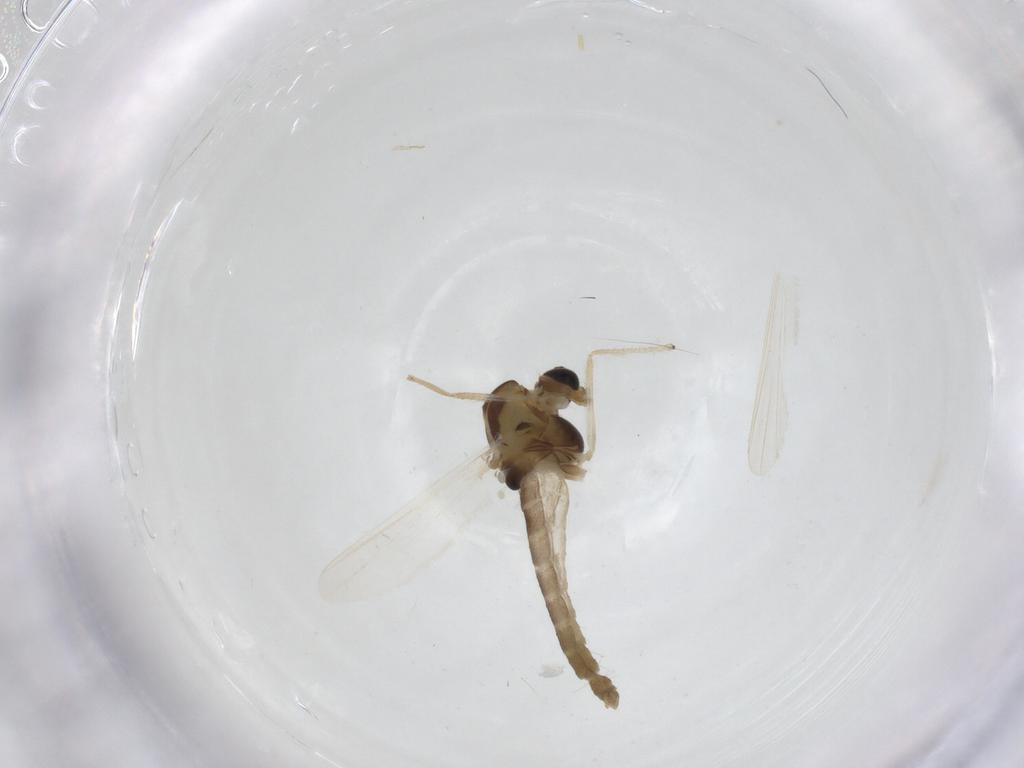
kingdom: Animalia
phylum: Arthropoda
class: Insecta
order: Diptera
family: Chironomidae
